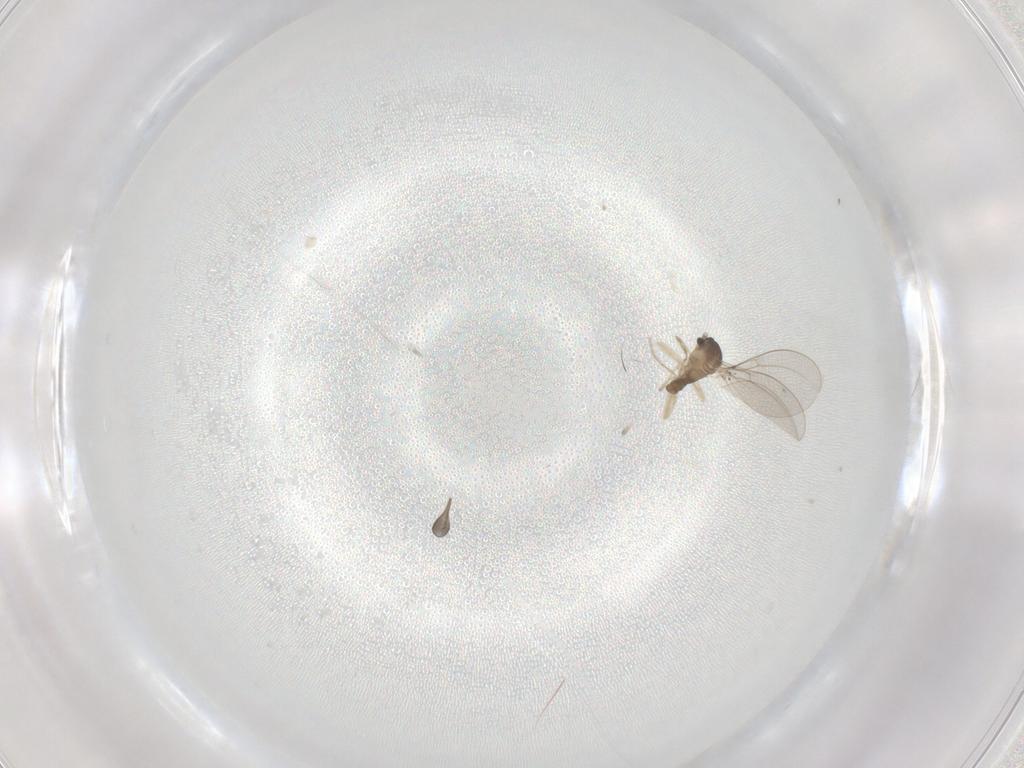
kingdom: Animalia
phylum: Arthropoda
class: Insecta
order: Diptera
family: Cecidomyiidae
